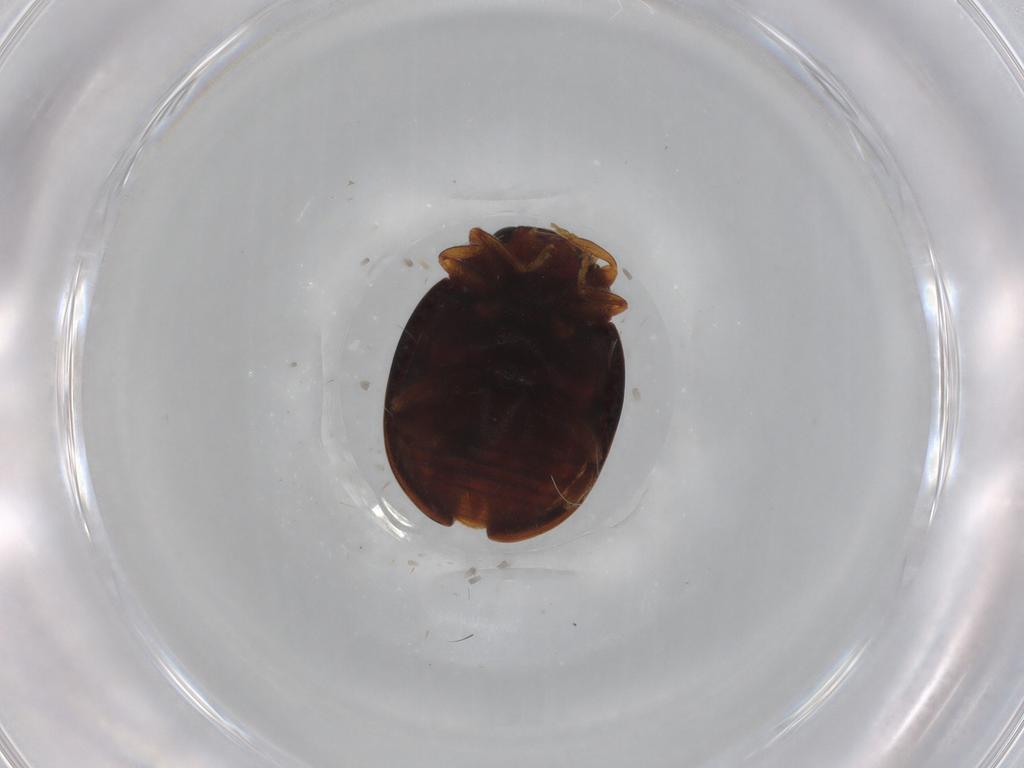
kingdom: Animalia
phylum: Arthropoda
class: Insecta
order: Coleoptera
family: Coccinellidae
